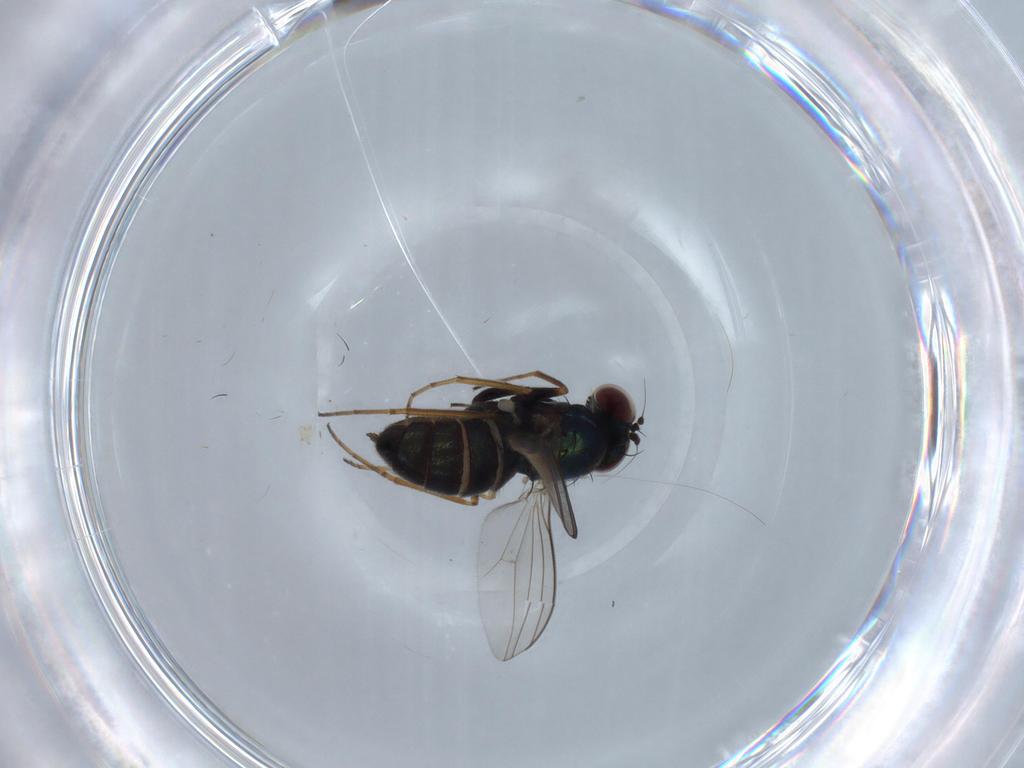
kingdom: Animalia
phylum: Arthropoda
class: Insecta
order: Diptera
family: Dolichopodidae
